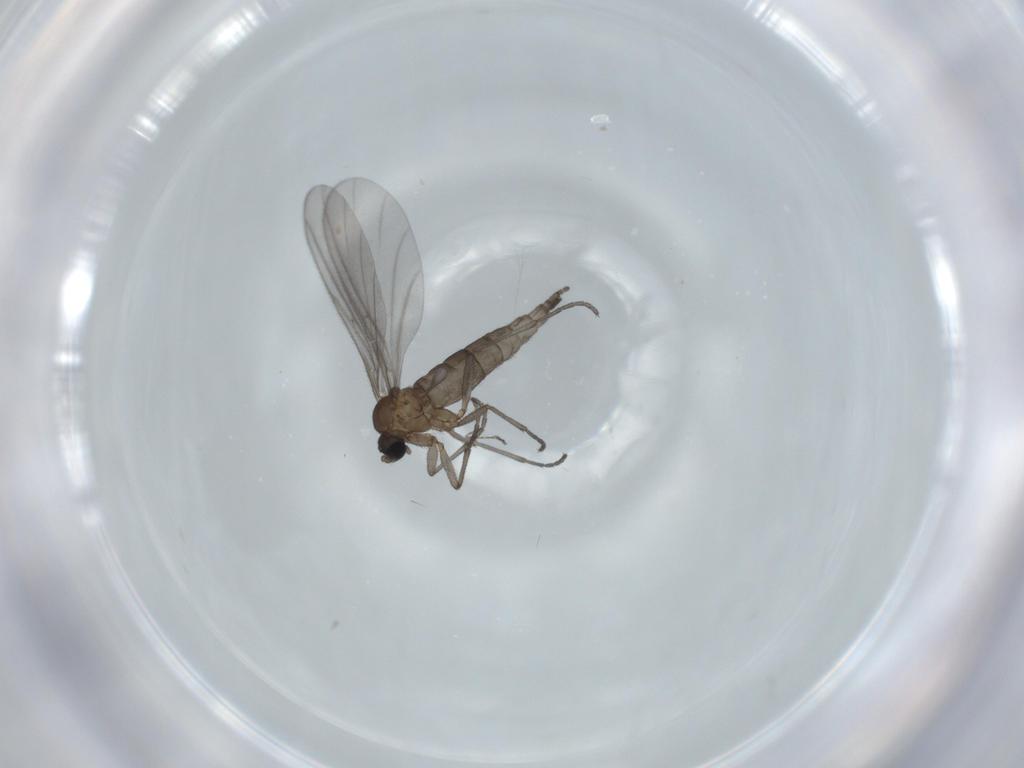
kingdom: Animalia
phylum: Arthropoda
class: Insecta
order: Diptera
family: Sciaridae
